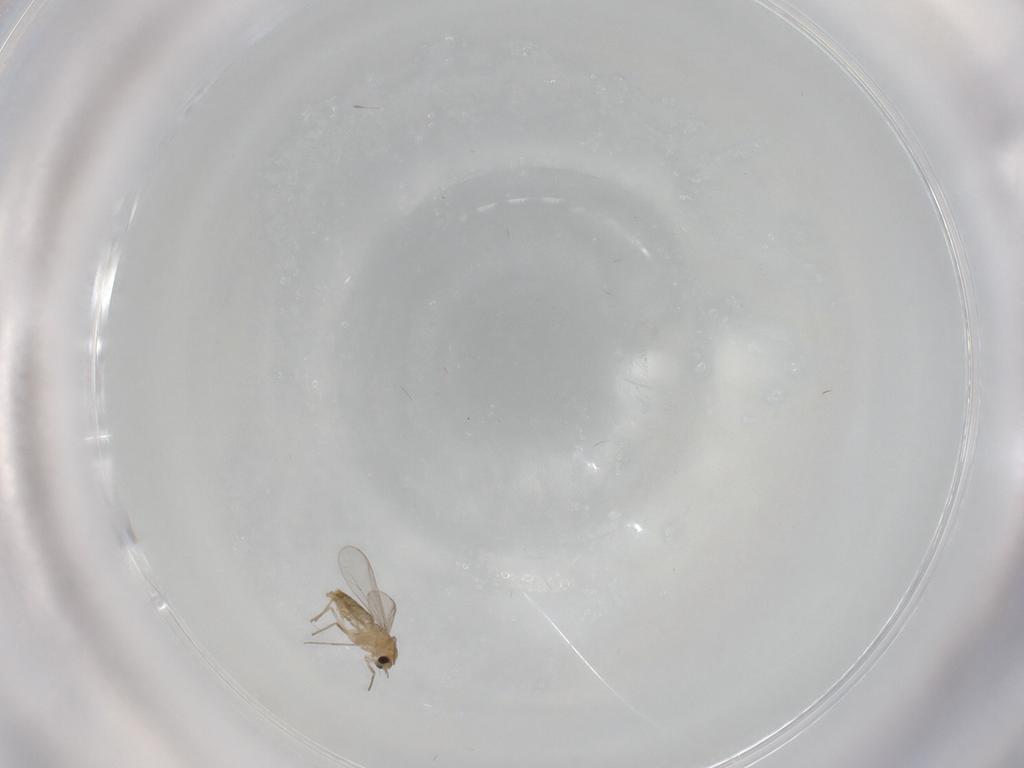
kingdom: Animalia
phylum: Arthropoda
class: Insecta
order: Diptera
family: Chironomidae
